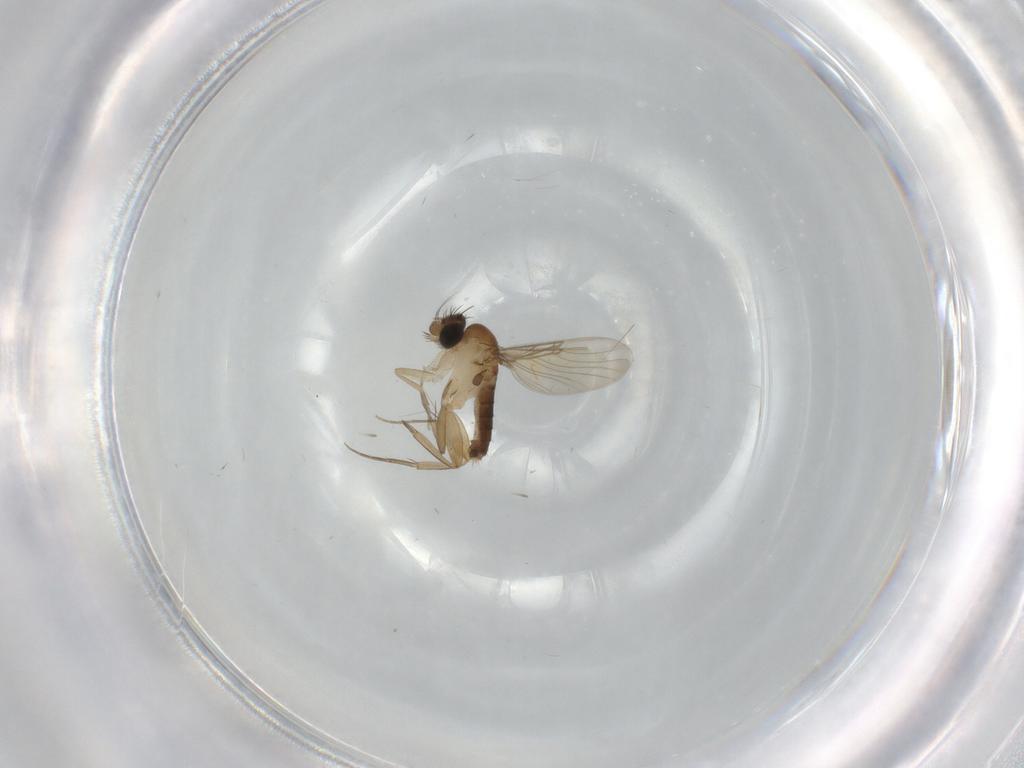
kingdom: Animalia
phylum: Arthropoda
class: Insecta
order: Diptera
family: Phoridae
